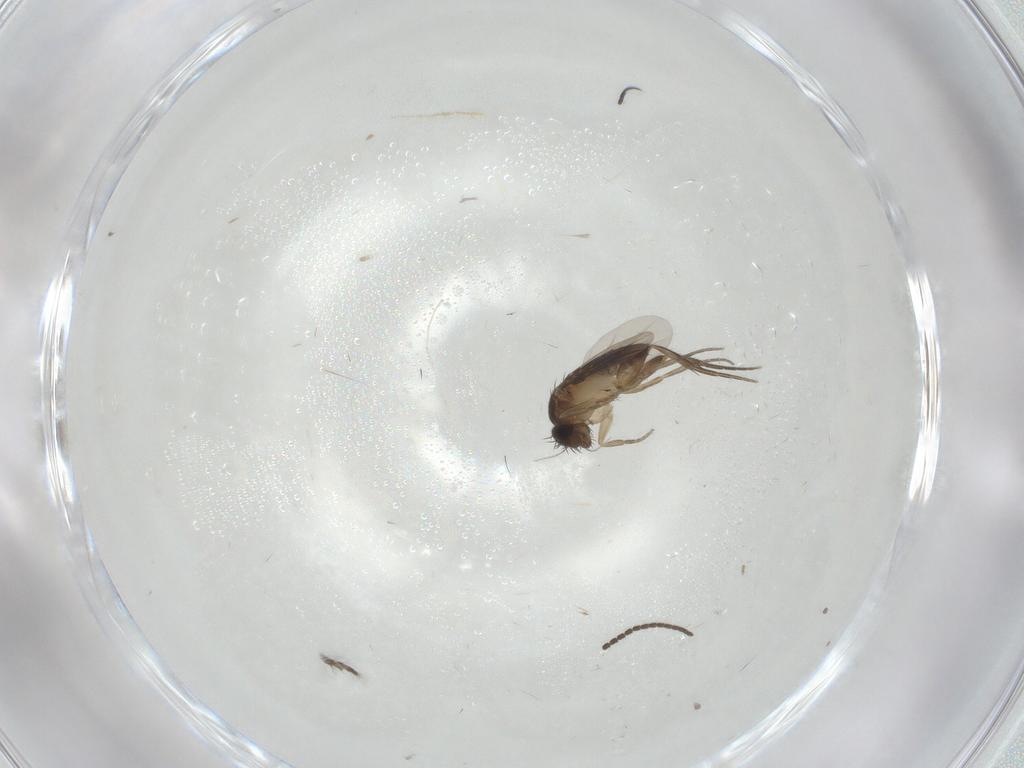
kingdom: Animalia
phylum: Arthropoda
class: Insecta
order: Diptera
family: Phoridae
